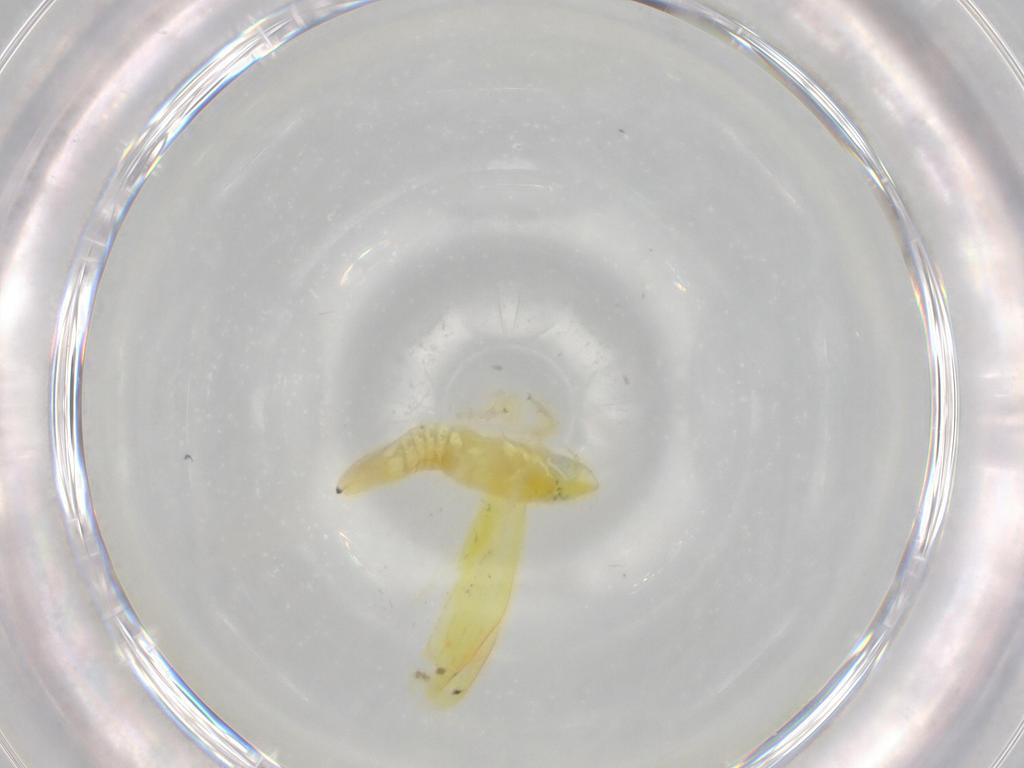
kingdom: Animalia
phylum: Arthropoda
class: Insecta
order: Hemiptera
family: Cicadellidae
